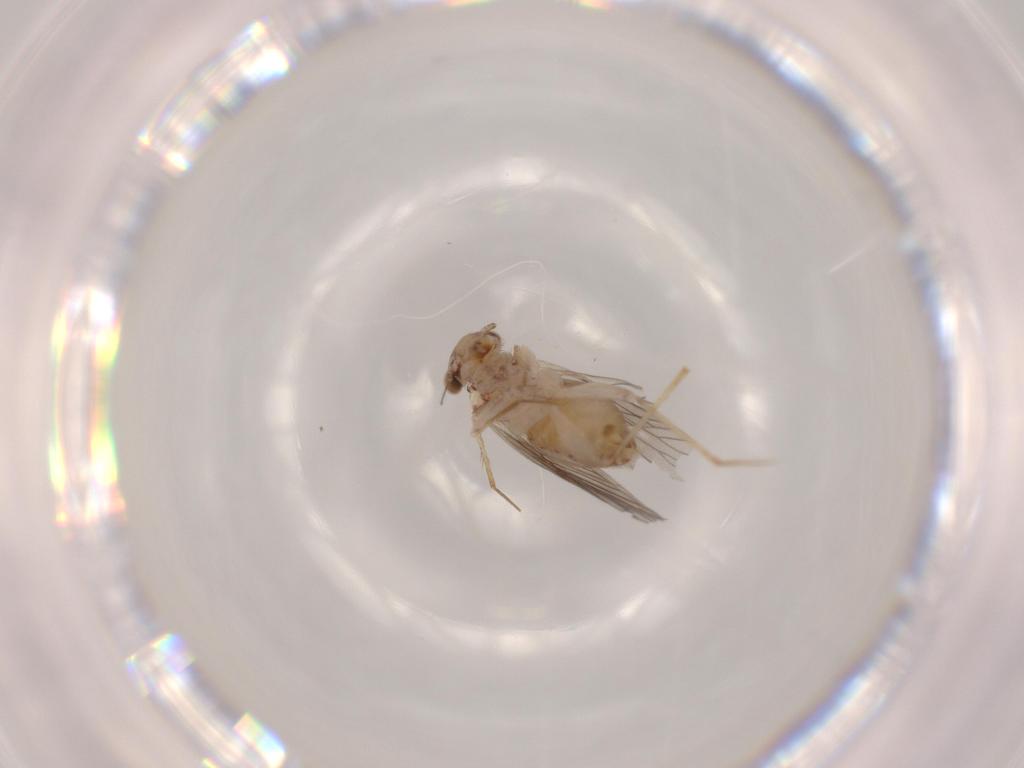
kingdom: Animalia
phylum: Arthropoda
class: Insecta
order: Psocodea
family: Lepidopsocidae
